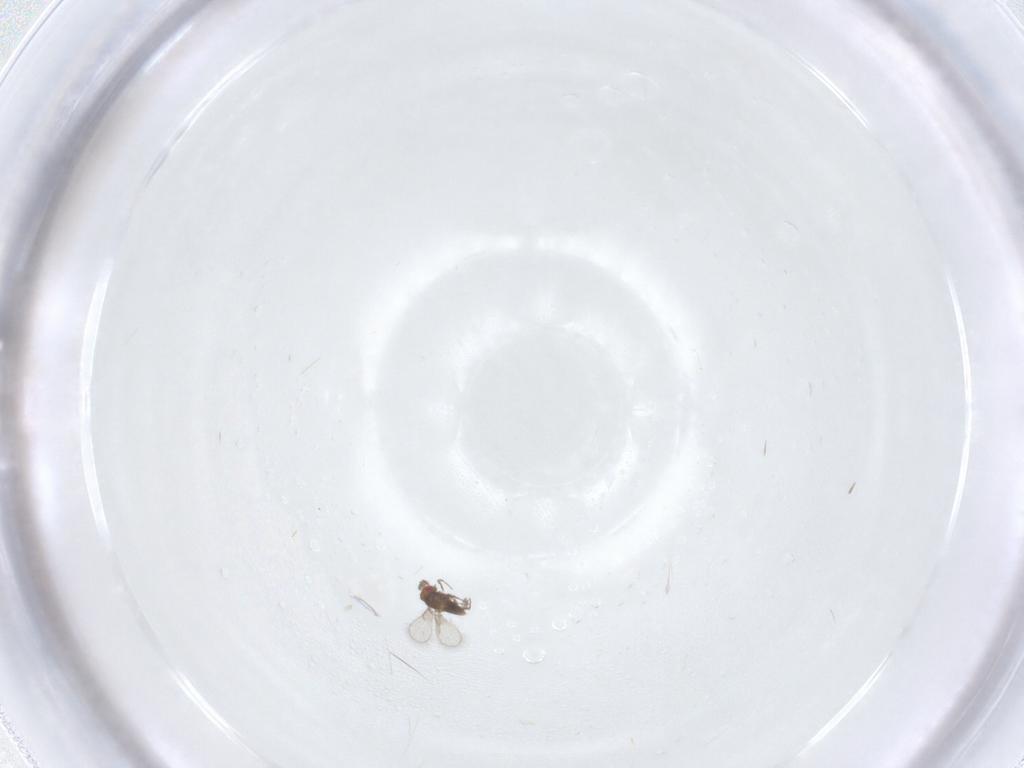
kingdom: Animalia
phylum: Arthropoda
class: Insecta
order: Hymenoptera
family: Trichogrammatidae
